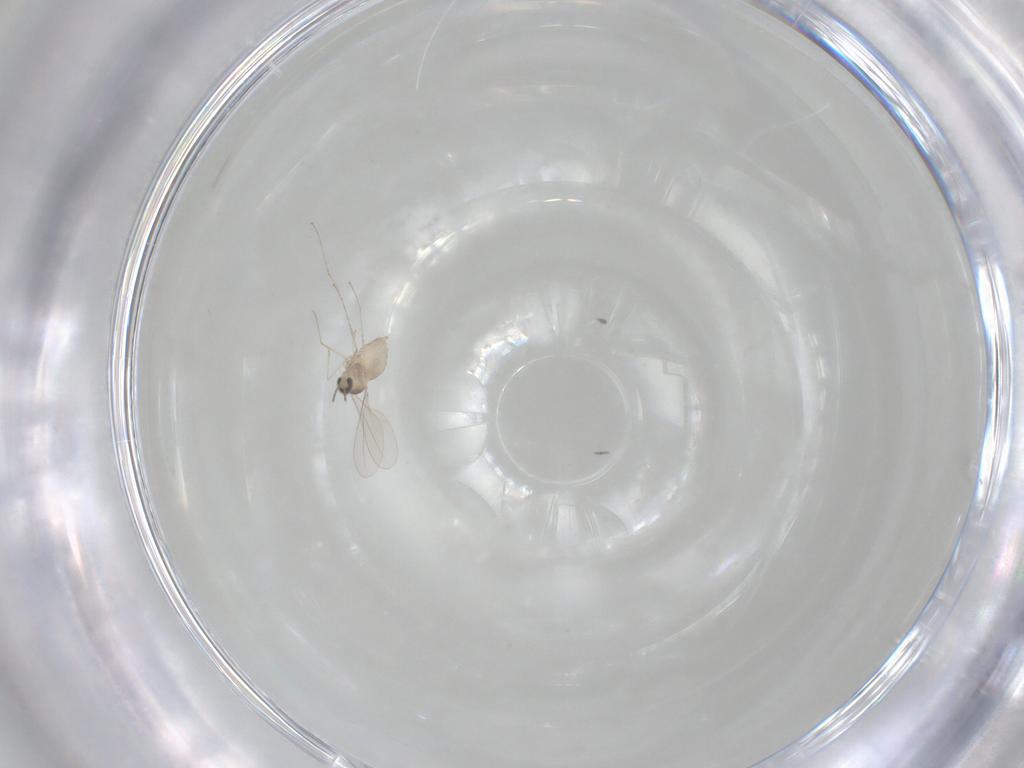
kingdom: Animalia
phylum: Arthropoda
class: Insecta
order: Diptera
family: Cecidomyiidae
